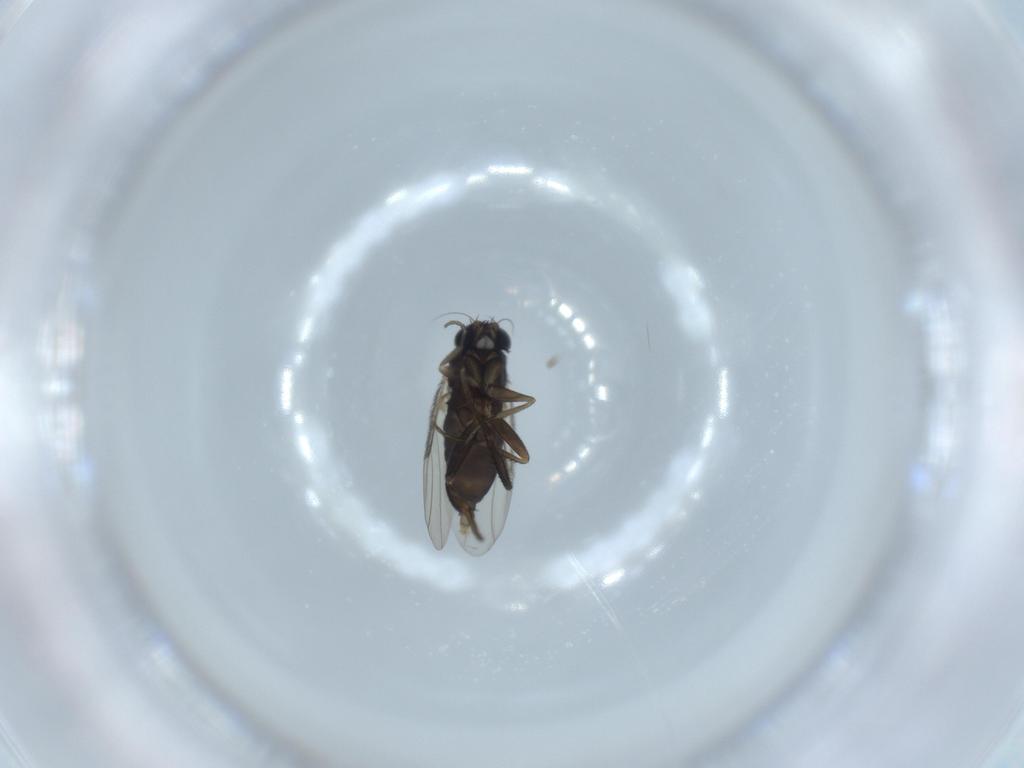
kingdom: Animalia
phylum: Arthropoda
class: Insecta
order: Diptera
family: Phoridae
